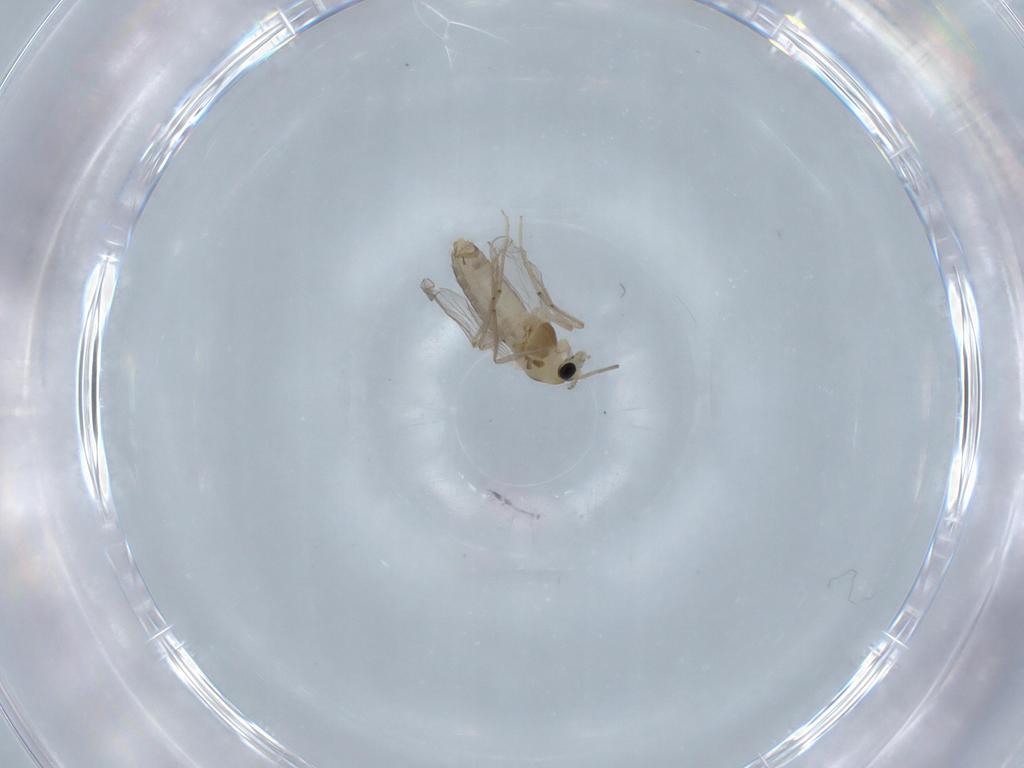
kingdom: Animalia
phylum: Arthropoda
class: Insecta
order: Diptera
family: Chironomidae
